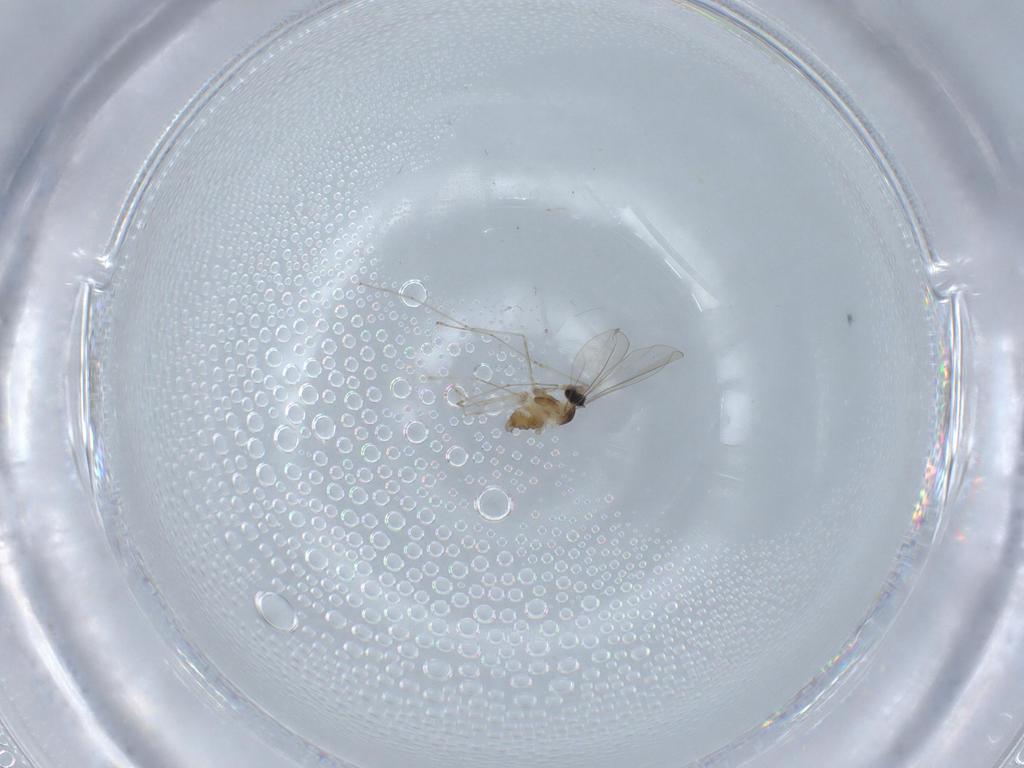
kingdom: Animalia
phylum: Arthropoda
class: Insecta
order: Diptera
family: Cecidomyiidae
